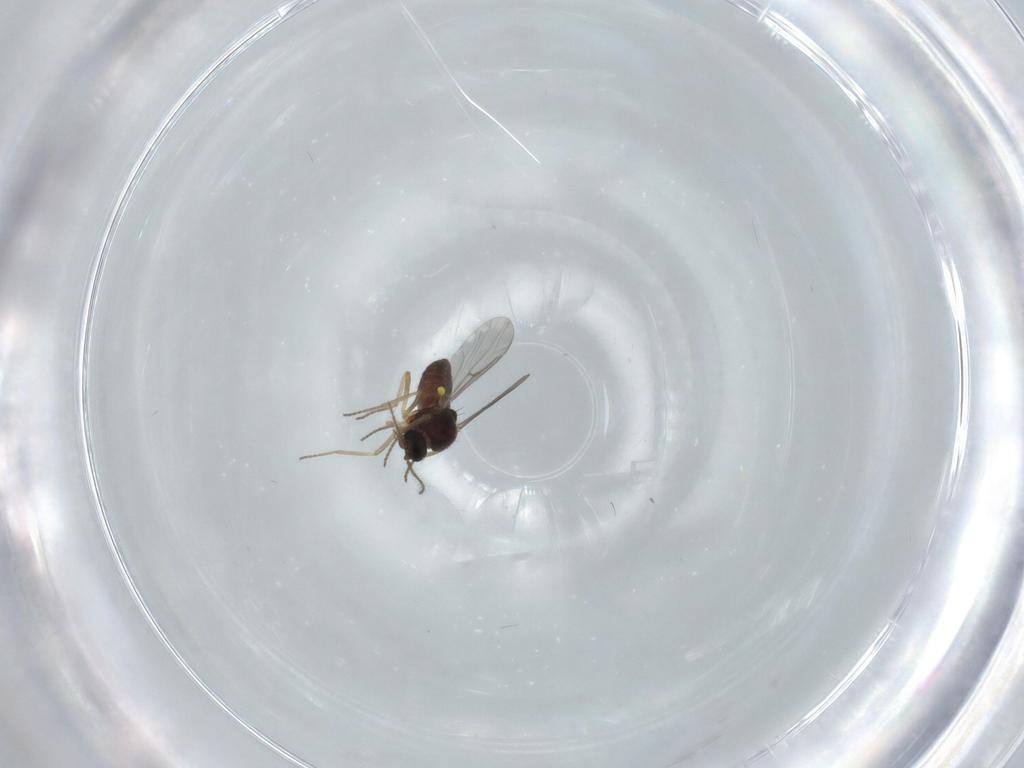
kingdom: Animalia
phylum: Arthropoda
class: Insecta
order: Diptera
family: Ceratopogonidae
